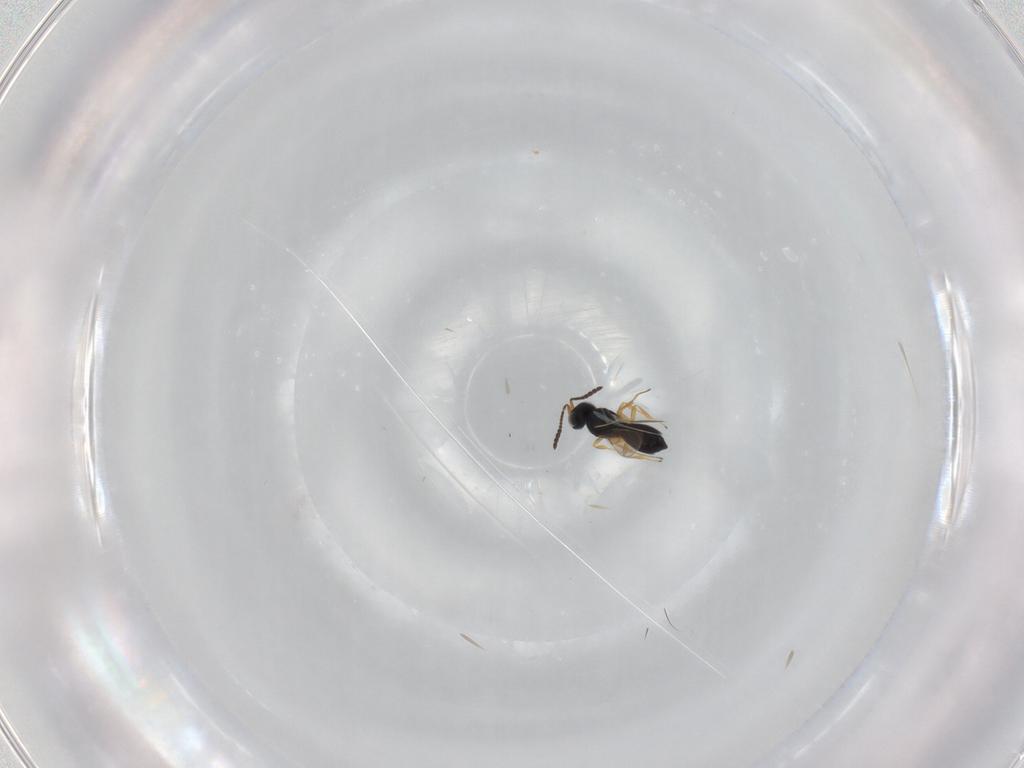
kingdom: Animalia
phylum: Arthropoda
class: Insecta
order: Hymenoptera
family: Scelionidae
